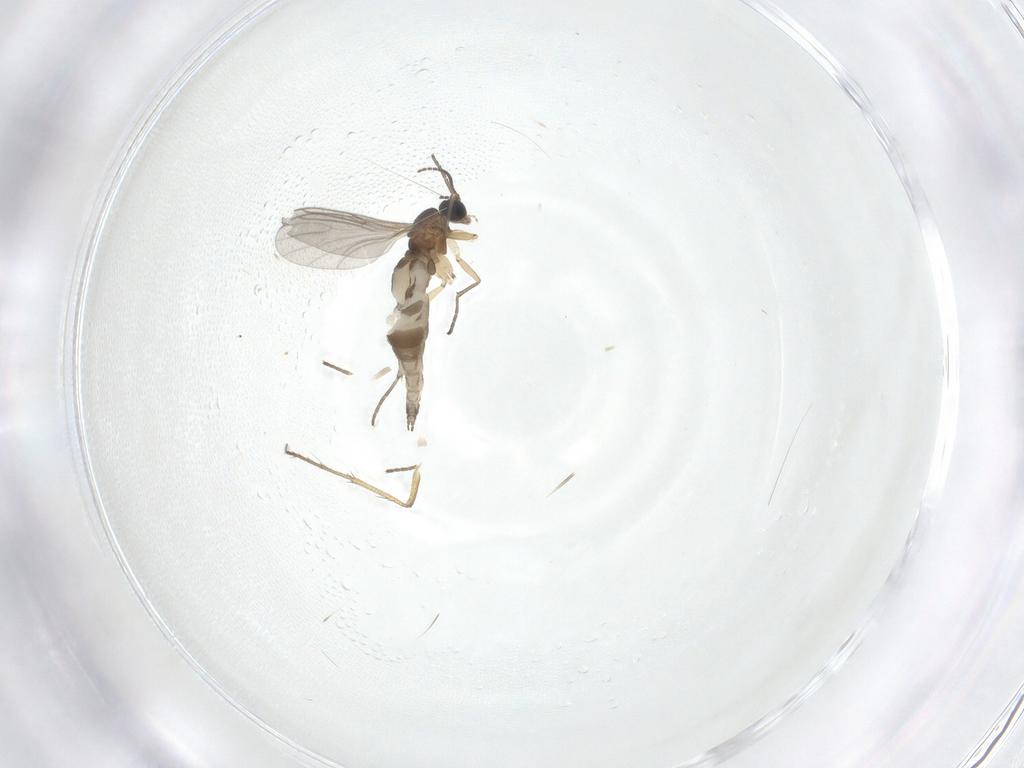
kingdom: Animalia
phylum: Arthropoda
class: Insecta
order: Diptera
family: Sciaridae
